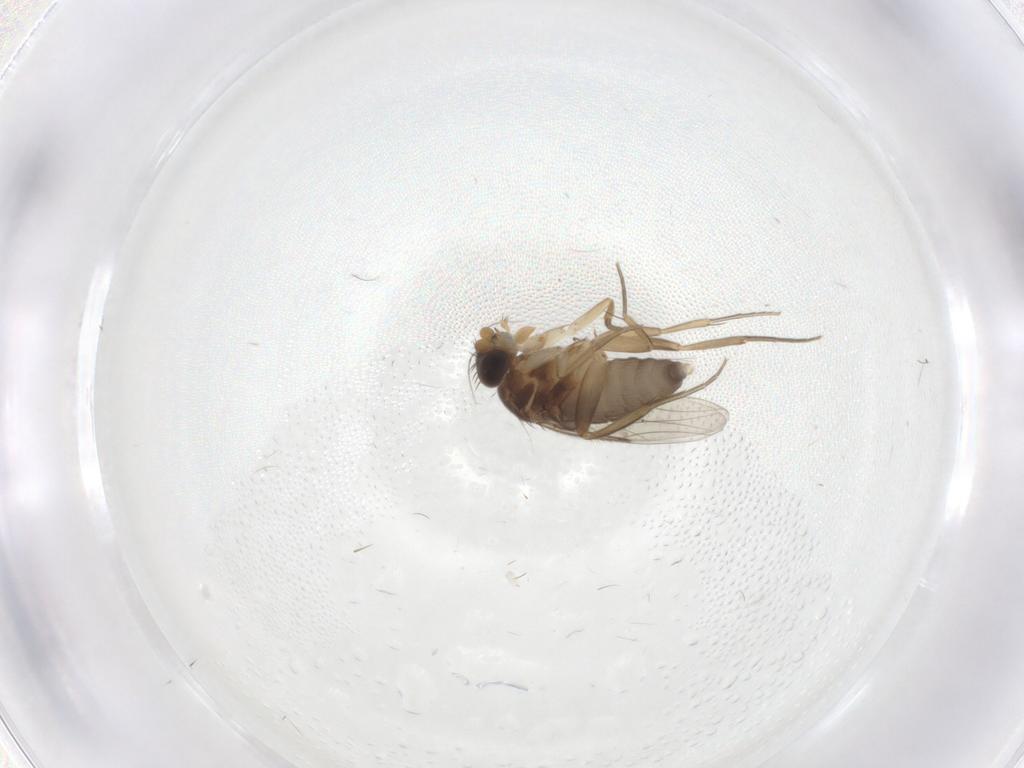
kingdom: Animalia
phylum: Arthropoda
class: Insecta
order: Diptera
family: Phoridae
